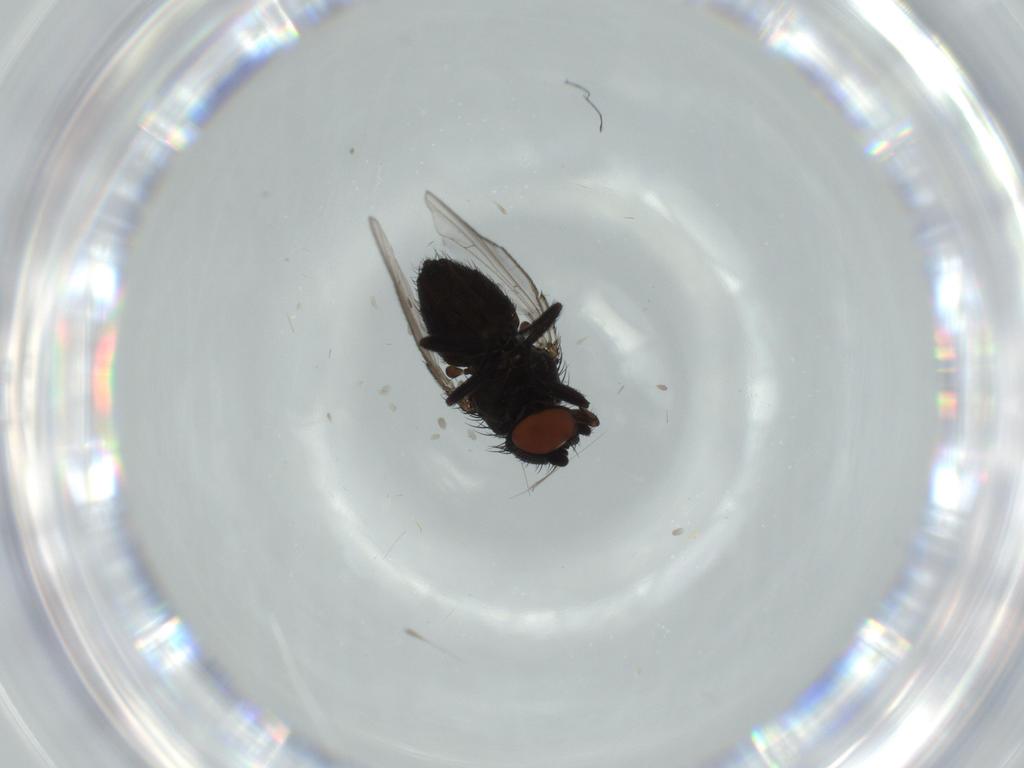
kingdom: Animalia
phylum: Arthropoda
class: Insecta
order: Diptera
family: Milichiidae
